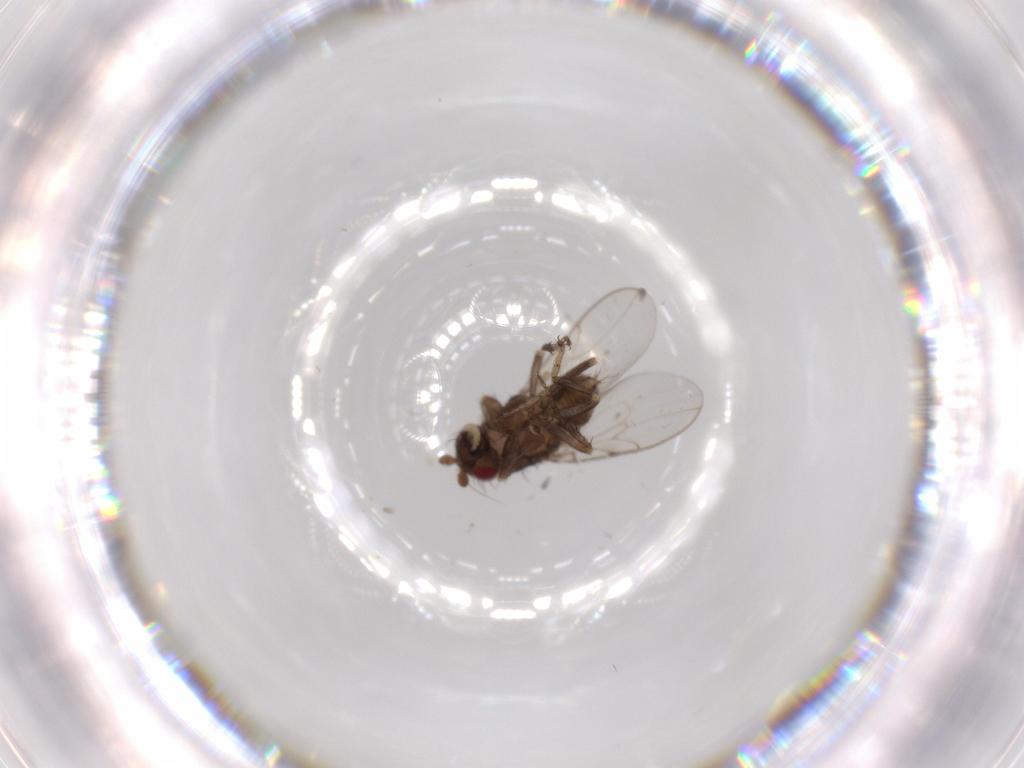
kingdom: Animalia
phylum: Arthropoda
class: Insecta
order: Diptera
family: Sphaeroceridae
